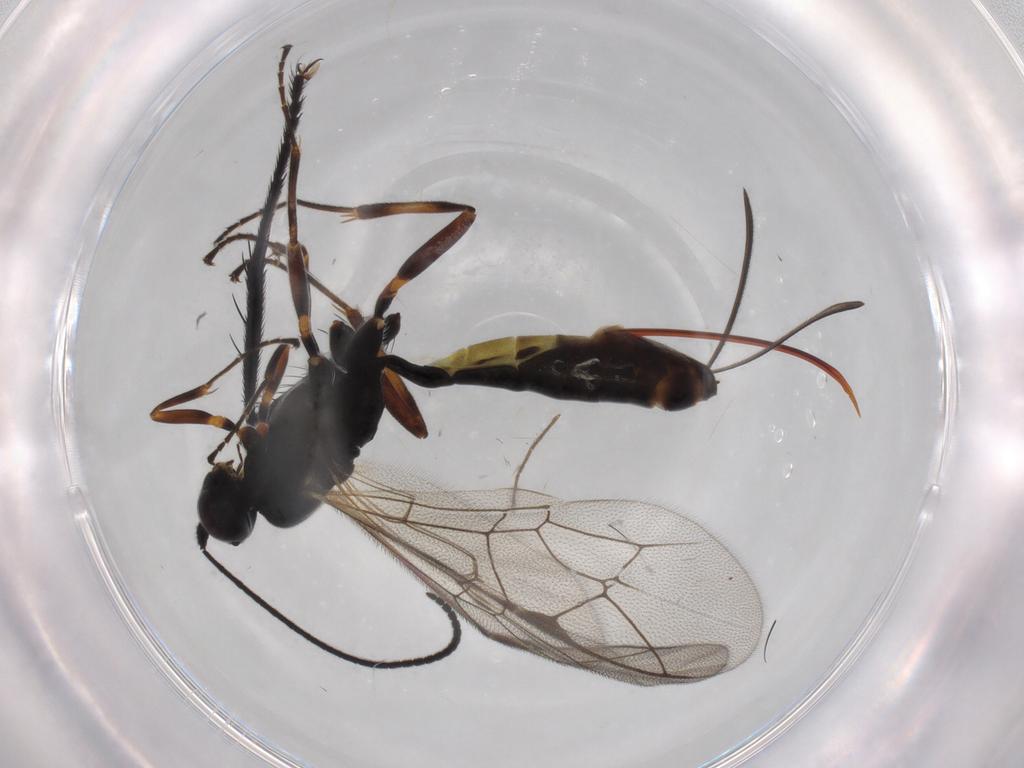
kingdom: Animalia
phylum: Arthropoda
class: Insecta
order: Hymenoptera
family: Ichneumonidae
